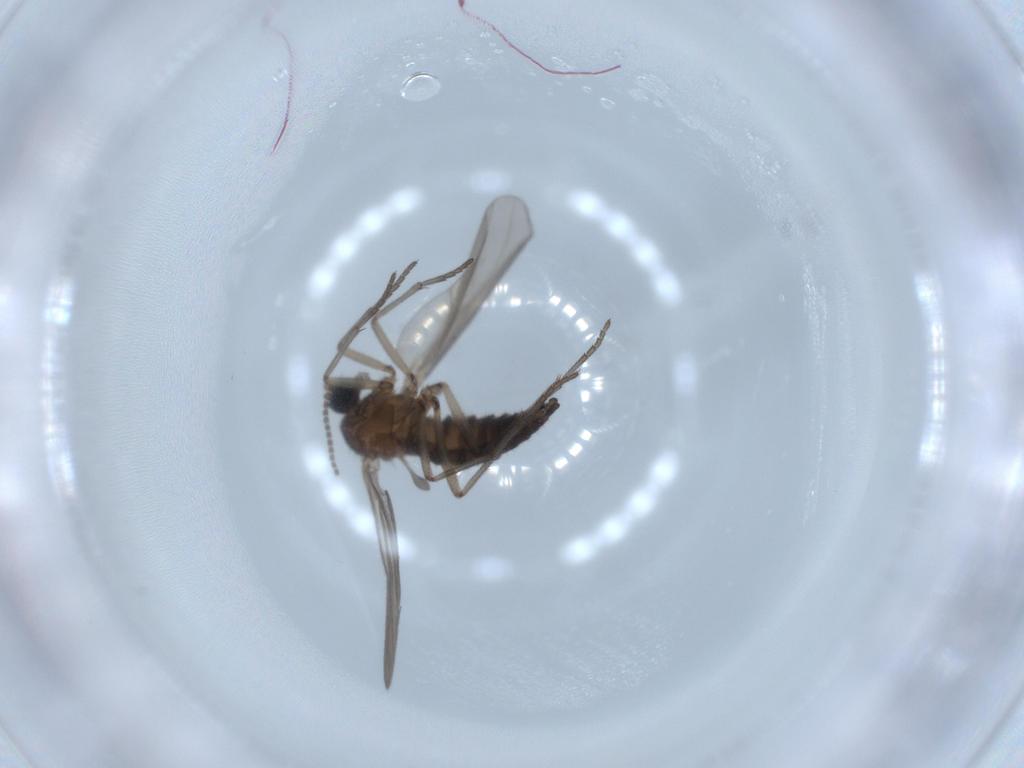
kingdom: Animalia
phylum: Arthropoda
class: Insecta
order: Diptera
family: Sciaridae
